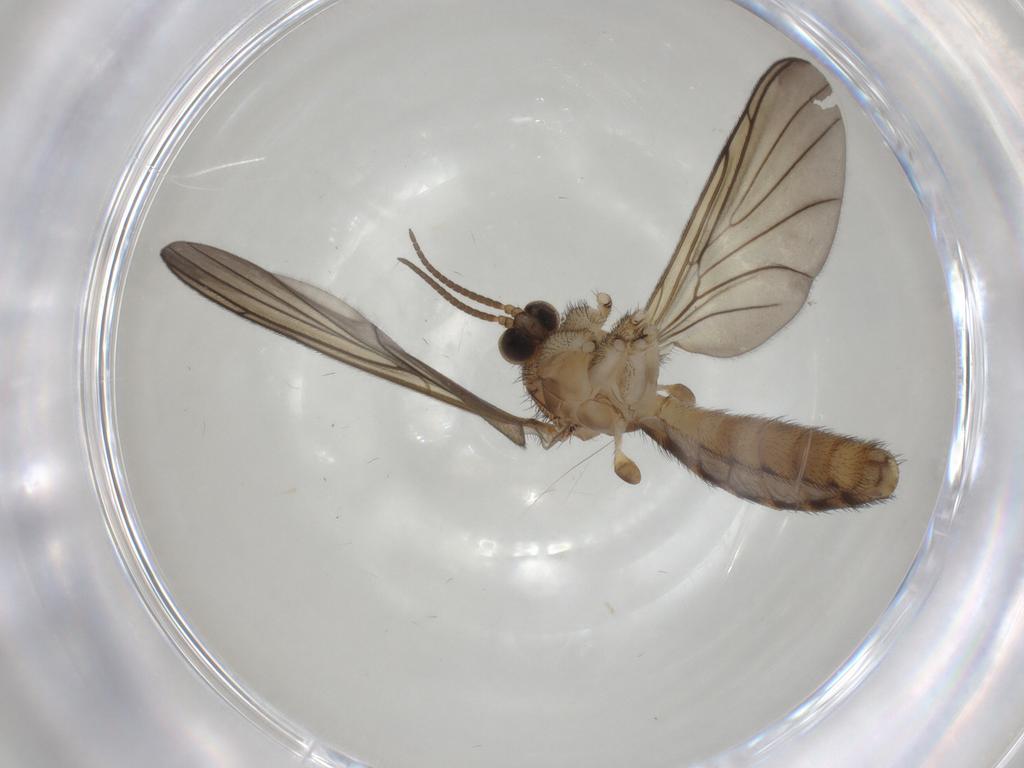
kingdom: Animalia
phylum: Arthropoda
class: Insecta
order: Diptera
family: Keroplatidae
